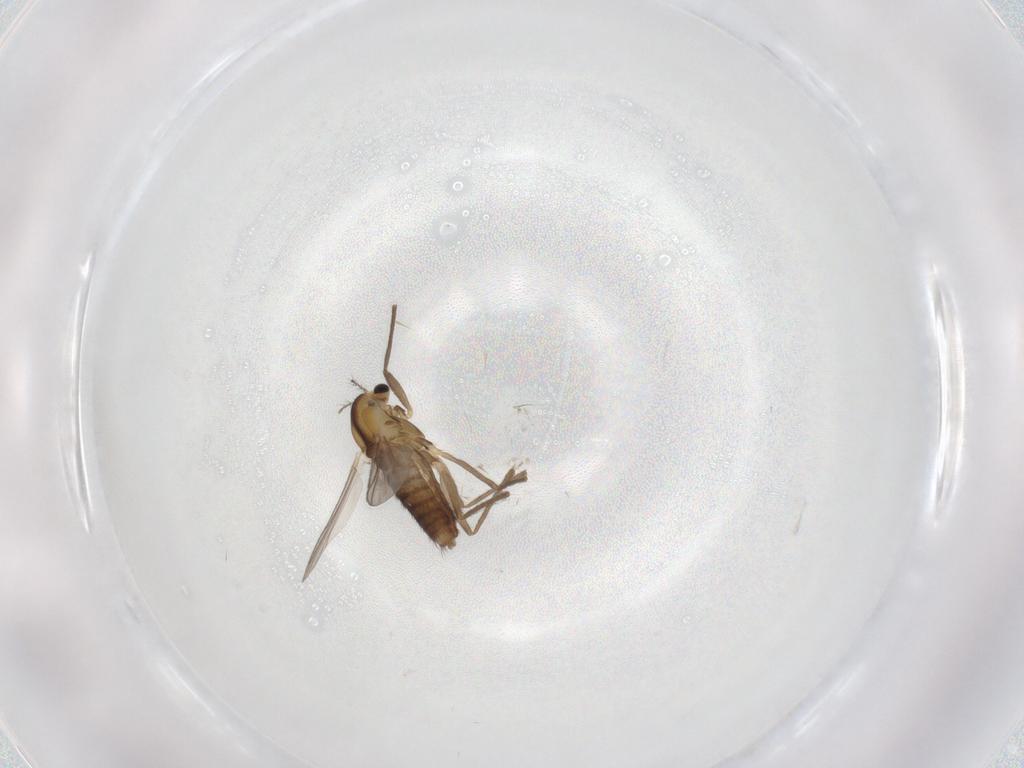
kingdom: Animalia
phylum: Arthropoda
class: Insecta
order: Diptera
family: Chironomidae
